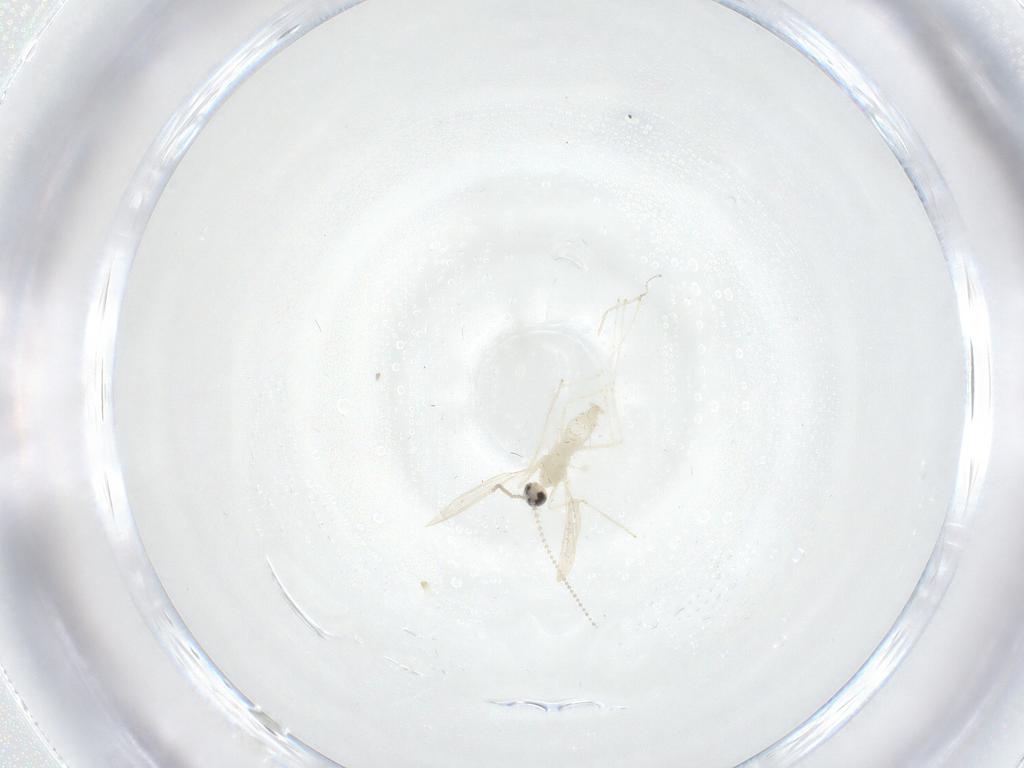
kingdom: Animalia
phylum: Arthropoda
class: Insecta
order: Diptera
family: Cecidomyiidae
